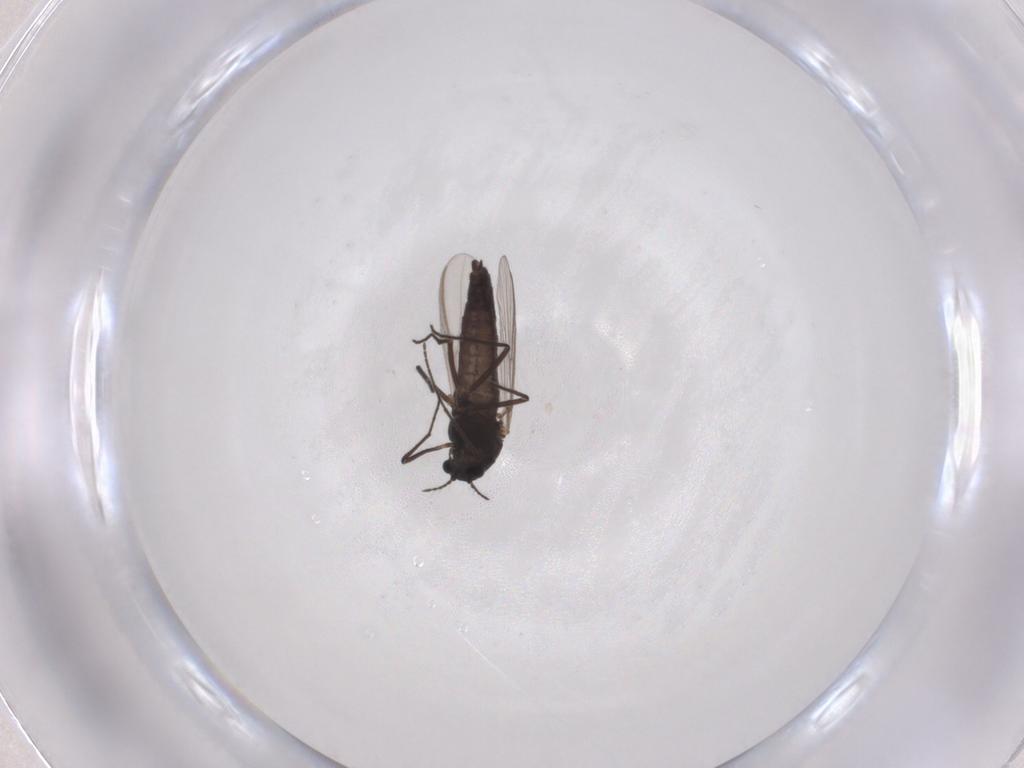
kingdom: Animalia
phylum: Arthropoda
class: Insecta
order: Diptera
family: Chironomidae
